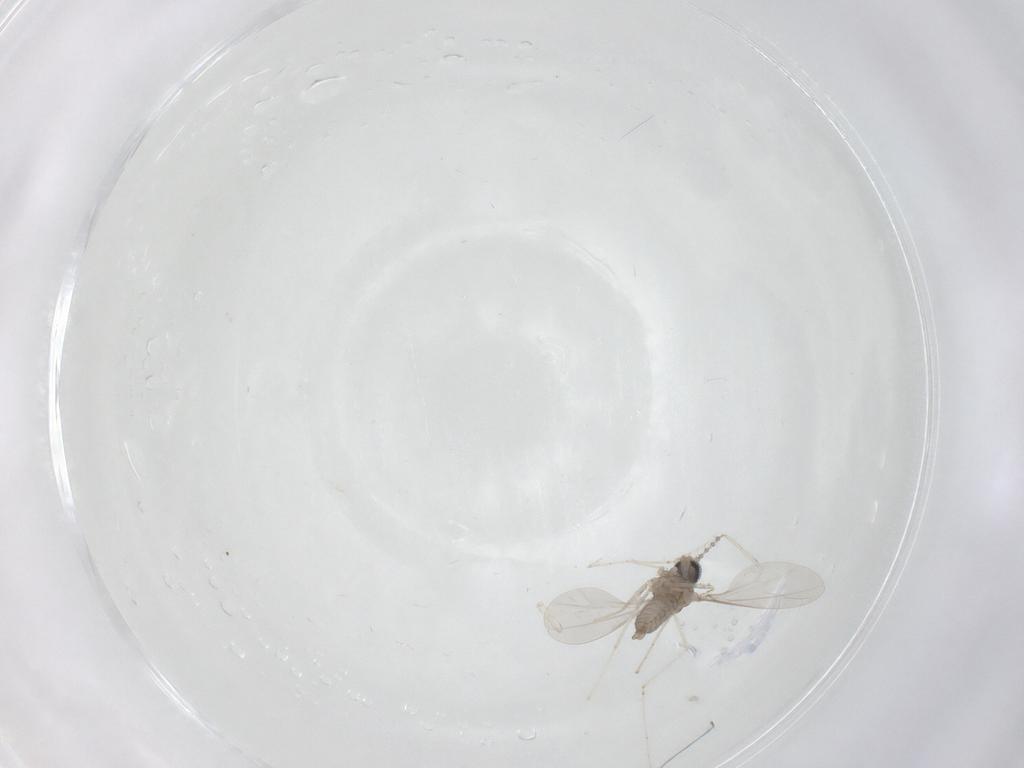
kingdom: Animalia
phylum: Arthropoda
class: Insecta
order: Diptera
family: Cecidomyiidae
